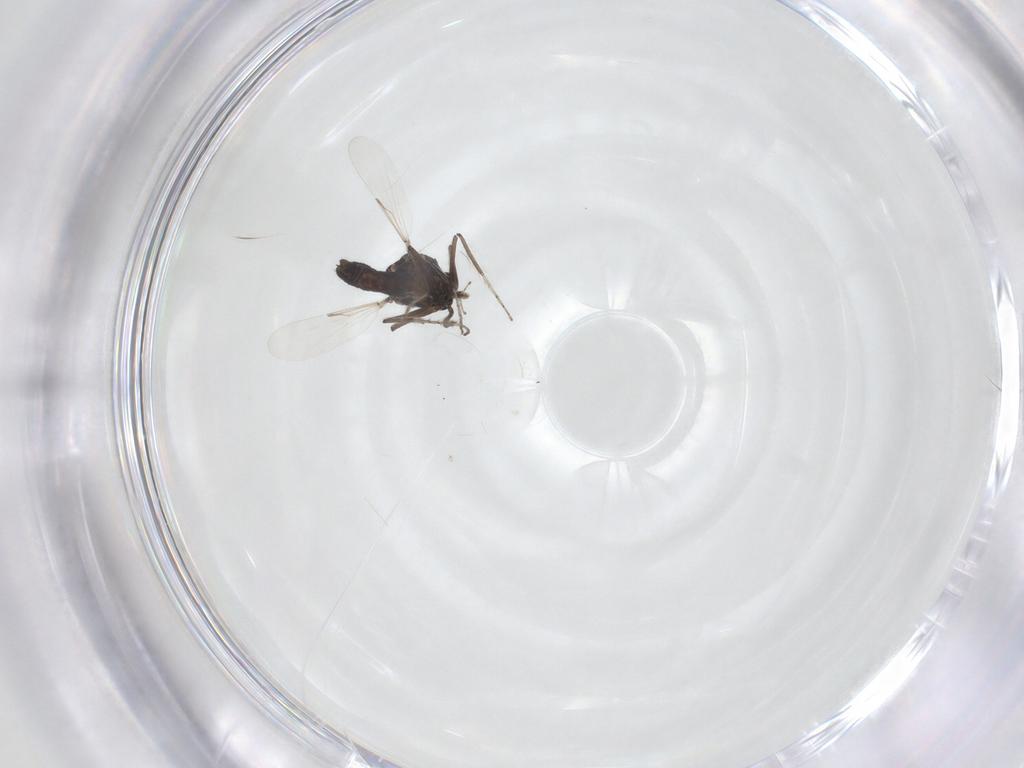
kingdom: Animalia
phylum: Arthropoda
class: Insecta
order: Diptera
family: Ceratopogonidae
